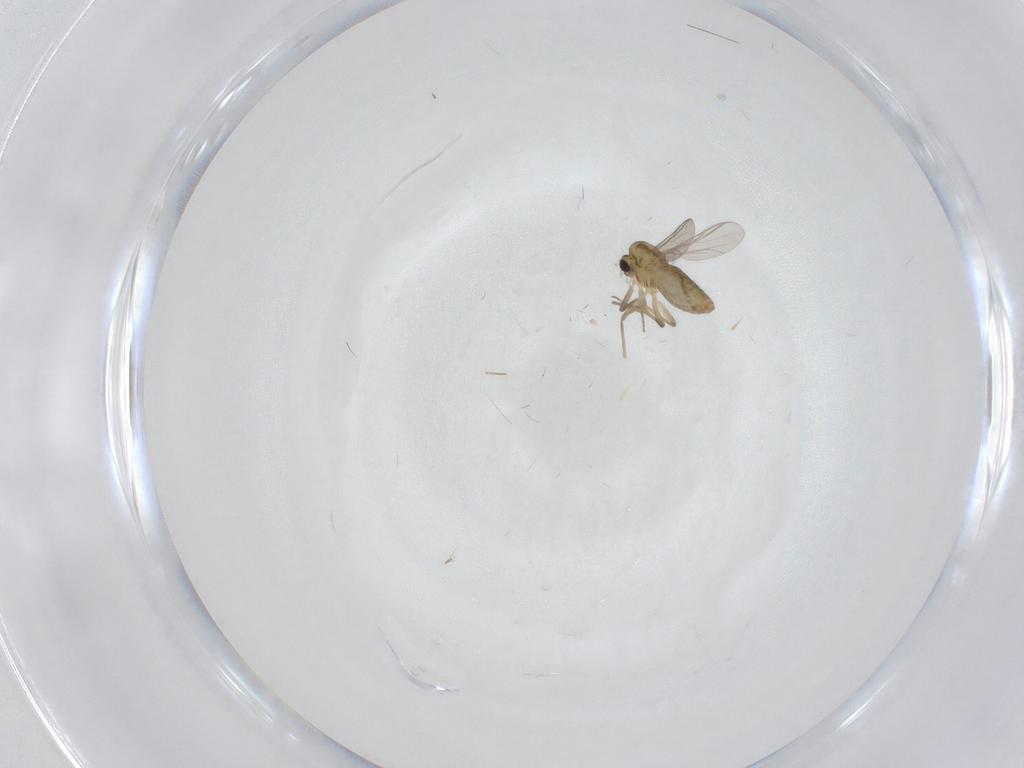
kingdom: Animalia
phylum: Arthropoda
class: Insecta
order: Diptera
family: Chironomidae
